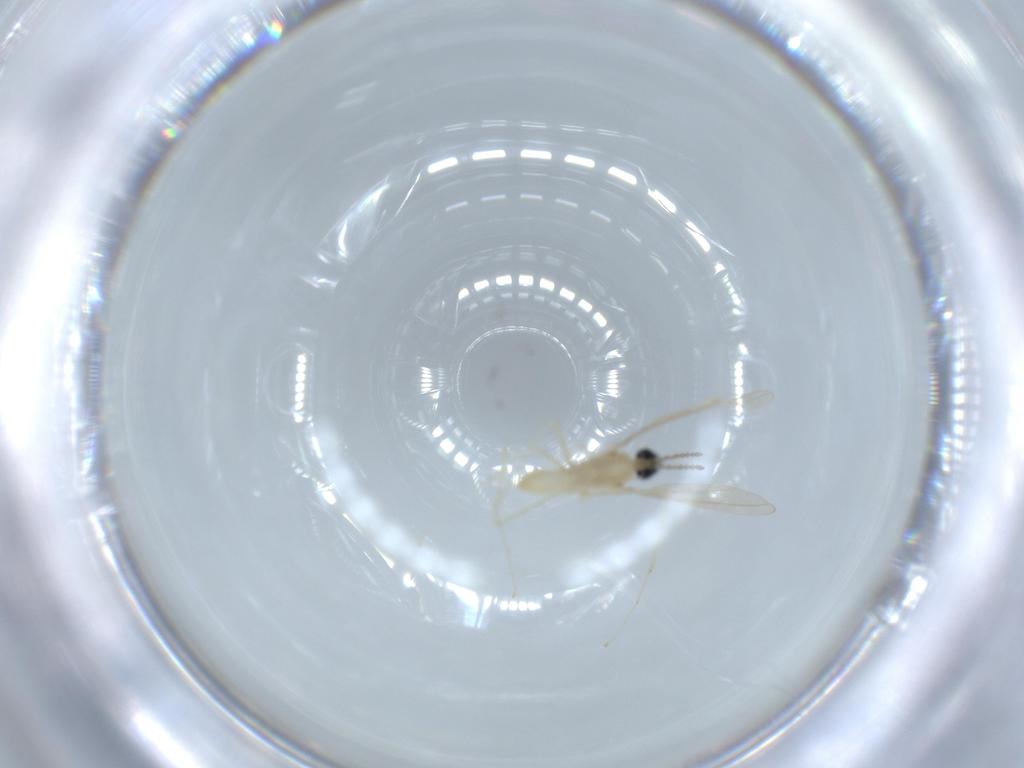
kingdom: Animalia
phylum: Arthropoda
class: Insecta
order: Diptera
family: Cecidomyiidae
